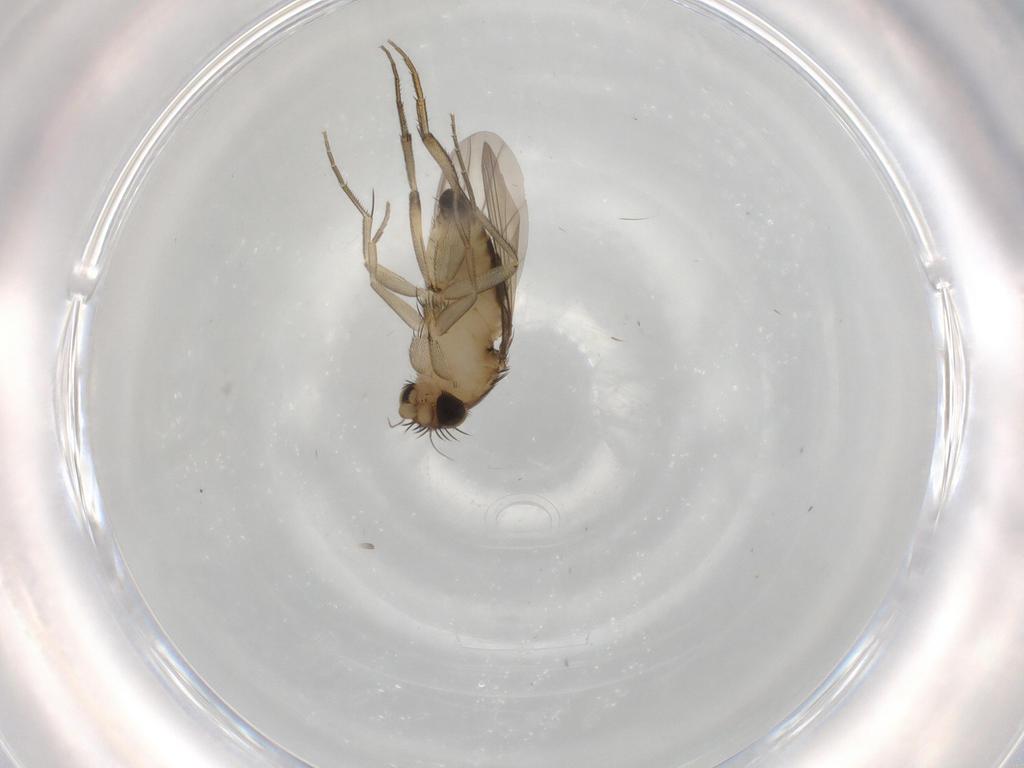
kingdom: Animalia
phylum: Arthropoda
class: Insecta
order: Diptera
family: Phoridae
